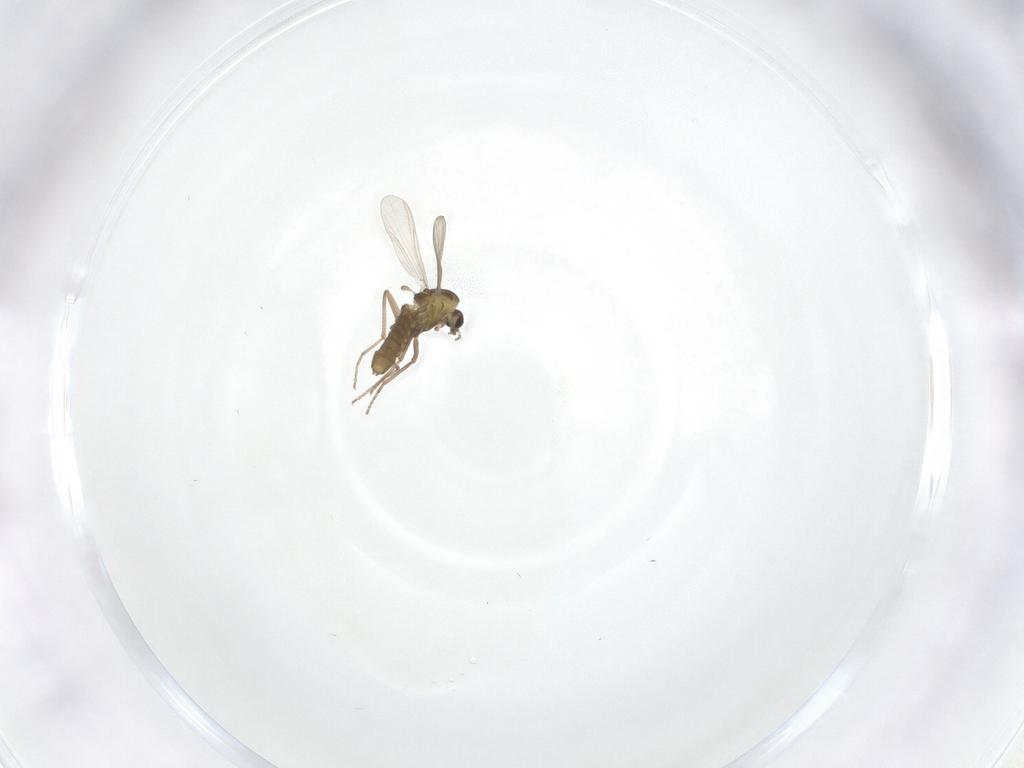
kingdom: Animalia
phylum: Arthropoda
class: Insecta
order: Diptera
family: Chironomidae
